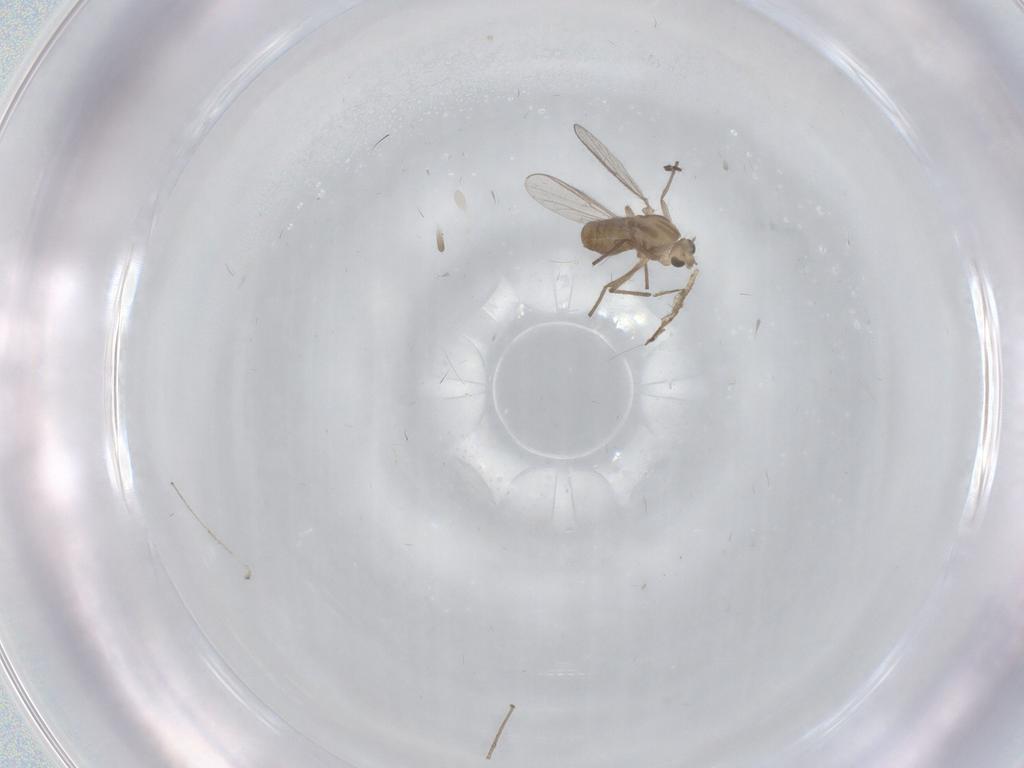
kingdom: Animalia
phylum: Arthropoda
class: Insecta
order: Diptera
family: Chironomidae
